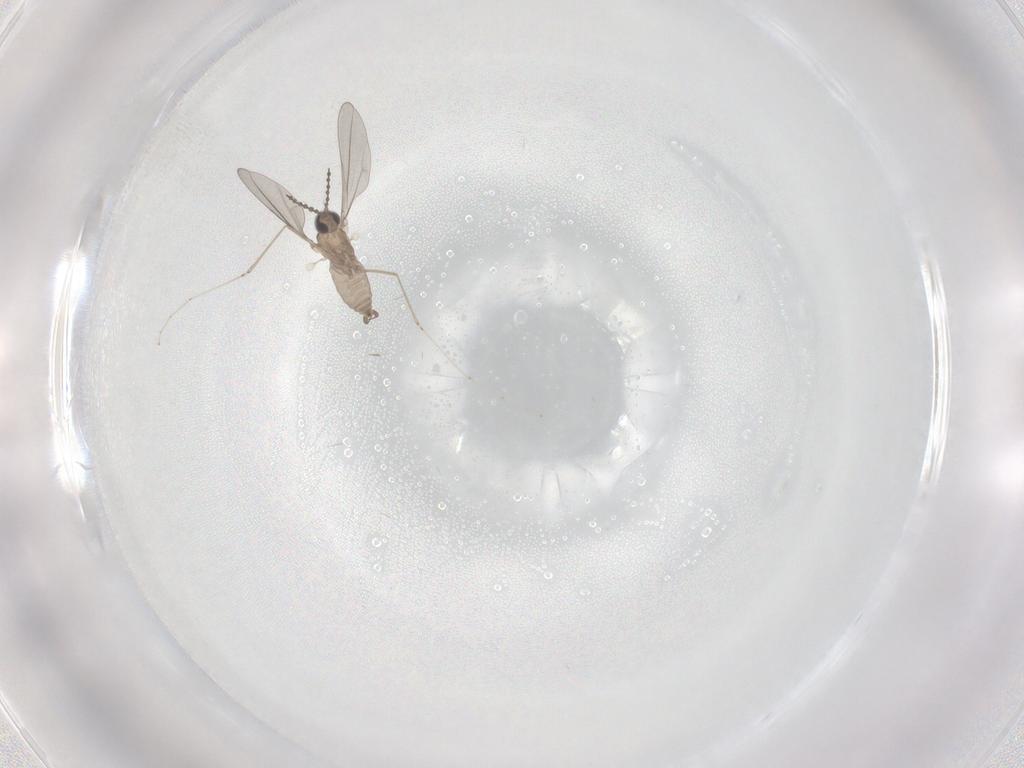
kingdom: Animalia
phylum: Arthropoda
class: Insecta
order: Diptera
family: Cecidomyiidae
